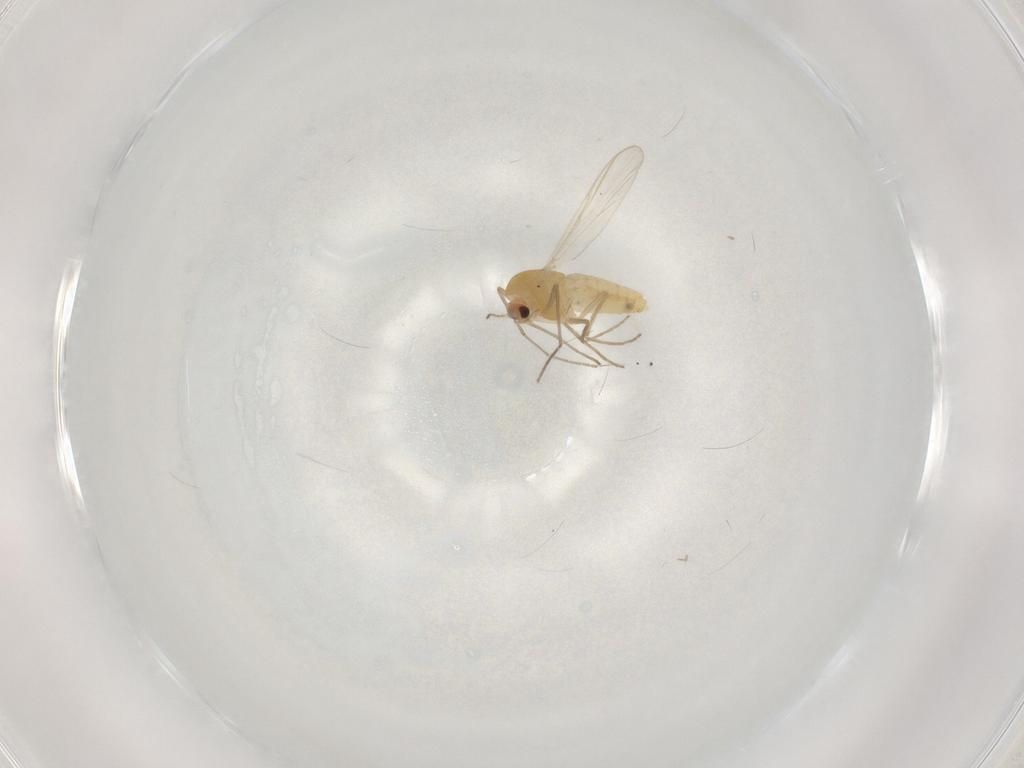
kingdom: Animalia
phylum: Arthropoda
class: Insecta
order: Diptera
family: Chironomidae
